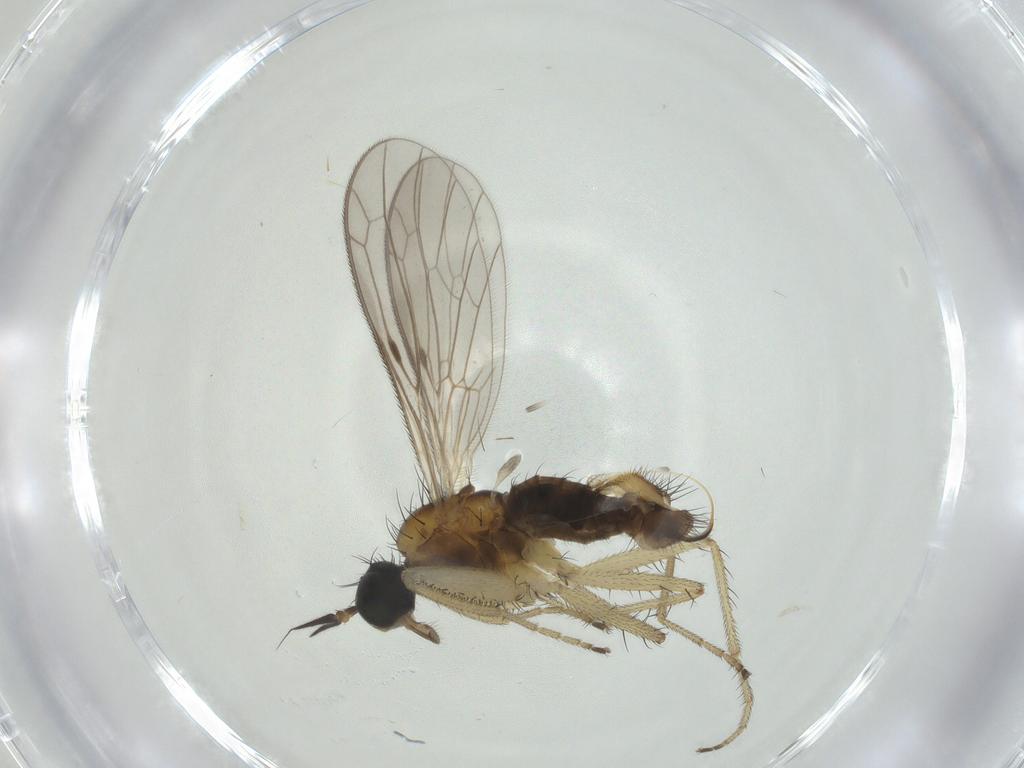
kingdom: Animalia
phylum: Arthropoda
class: Insecta
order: Diptera
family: Empididae
